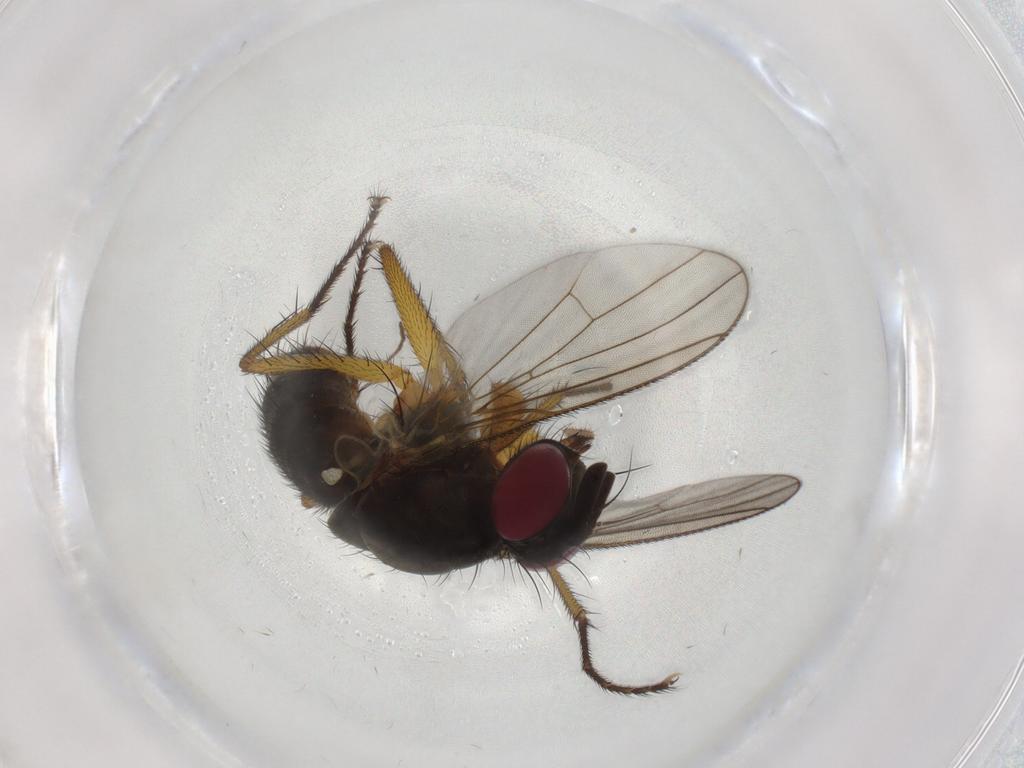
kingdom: Animalia
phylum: Arthropoda
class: Insecta
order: Diptera
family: Muscidae
